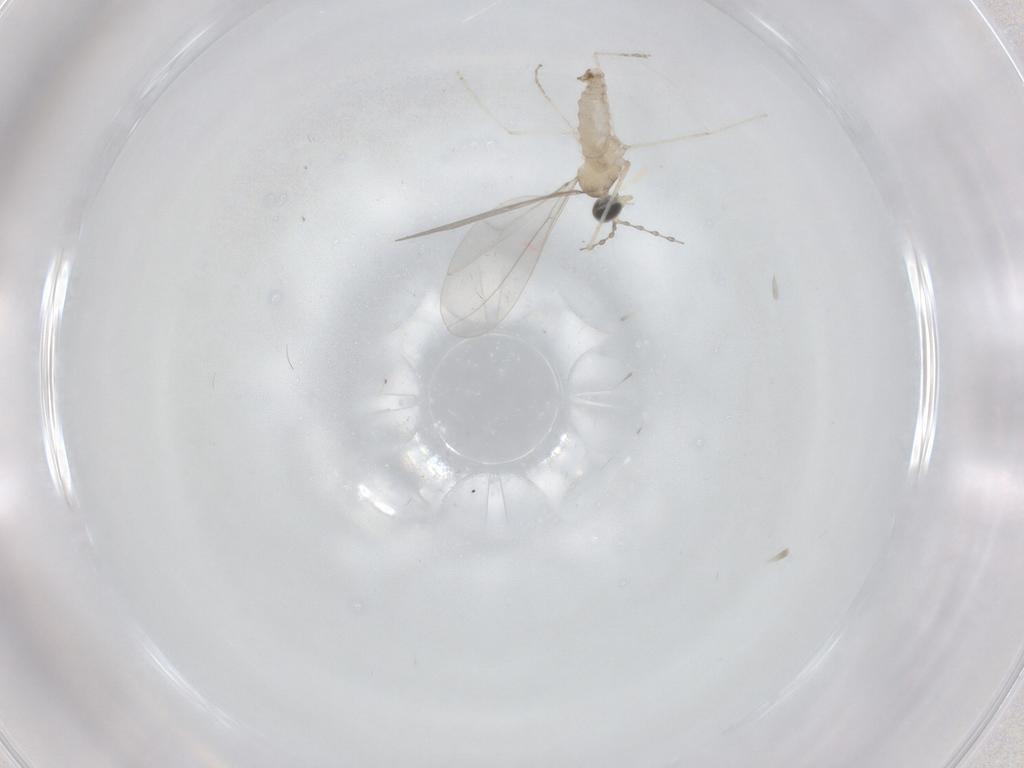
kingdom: Animalia
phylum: Arthropoda
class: Insecta
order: Diptera
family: Cecidomyiidae
